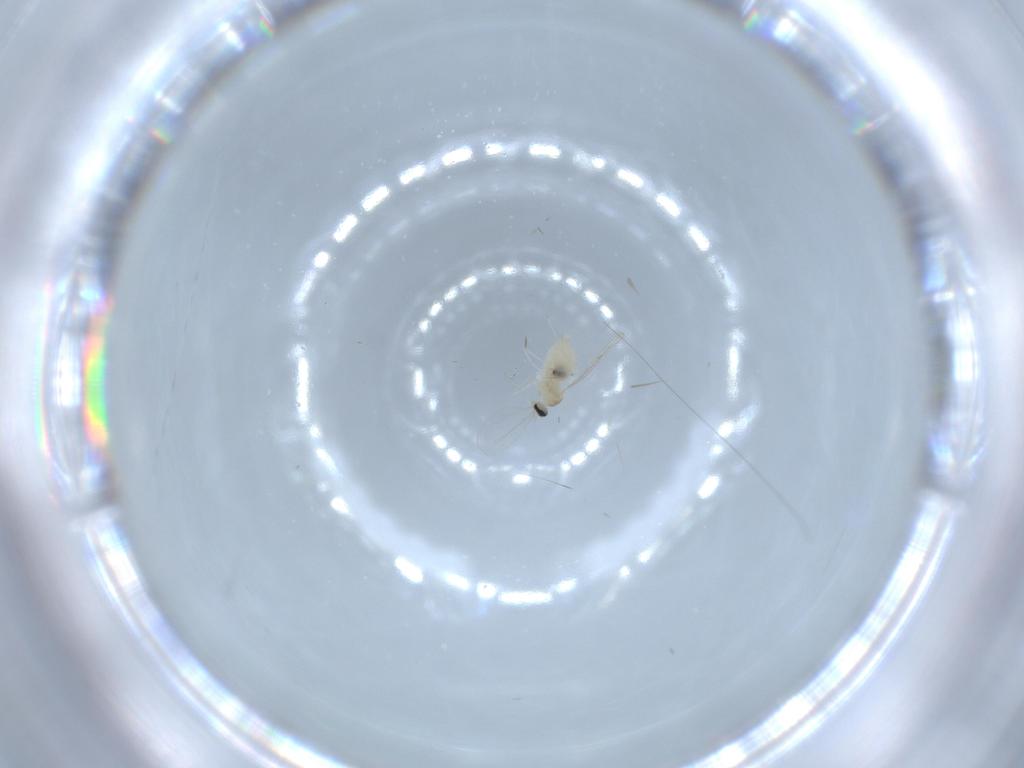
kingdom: Animalia
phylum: Arthropoda
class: Insecta
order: Diptera
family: Cecidomyiidae
